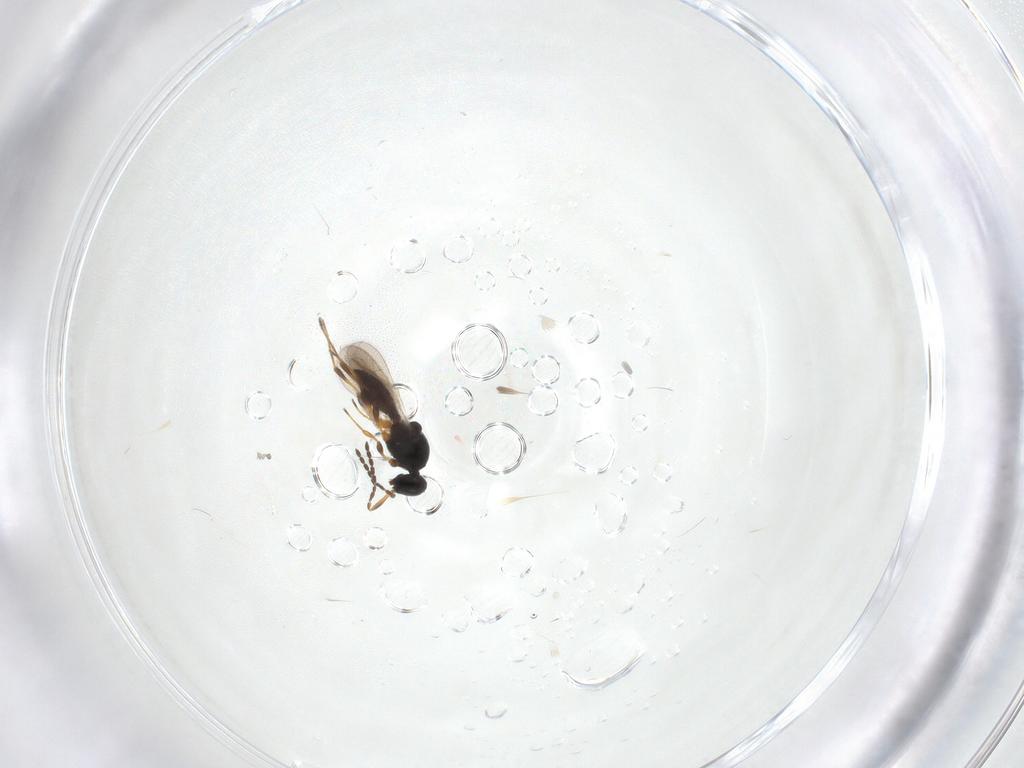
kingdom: Animalia
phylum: Arthropoda
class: Insecta
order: Hymenoptera
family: Platygastridae
